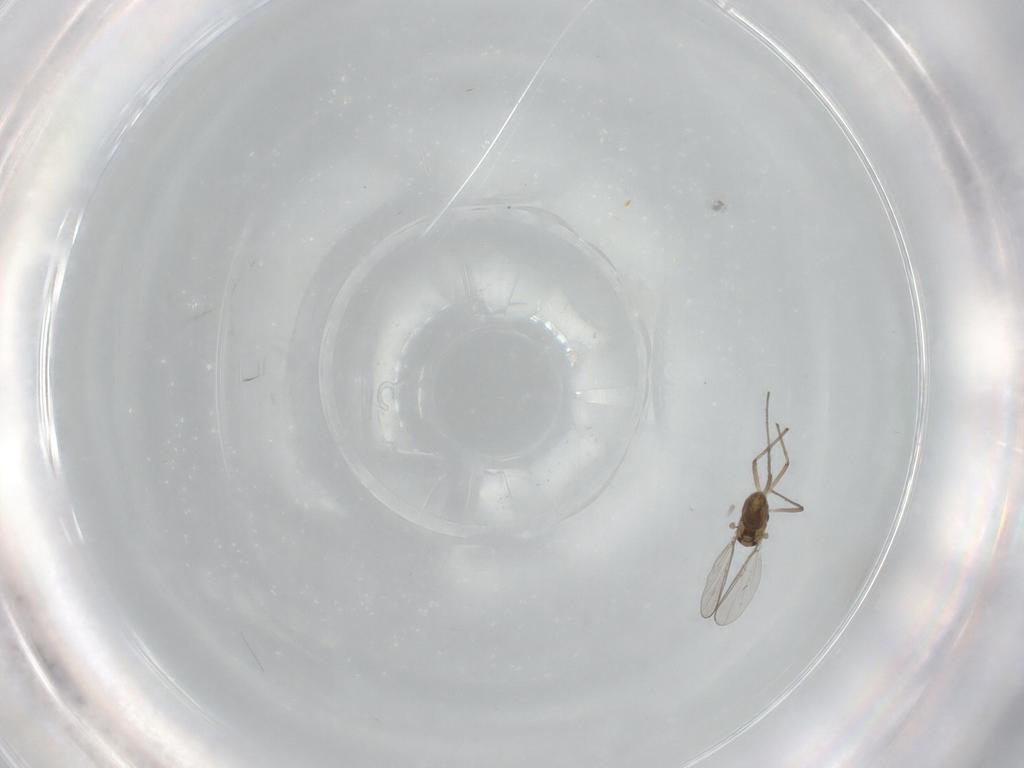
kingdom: Animalia
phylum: Arthropoda
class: Insecta
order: Diptera
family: Chironomidae
